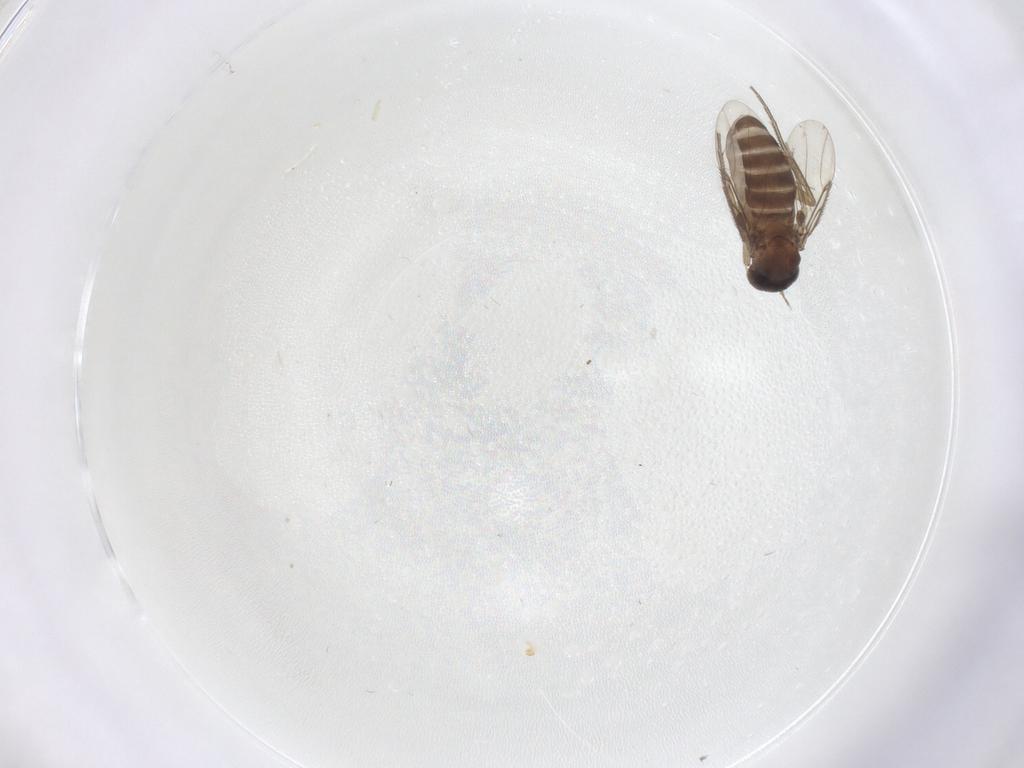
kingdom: Animalia
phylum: Arthropoda
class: Insecta
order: Diptera
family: Phoridae
